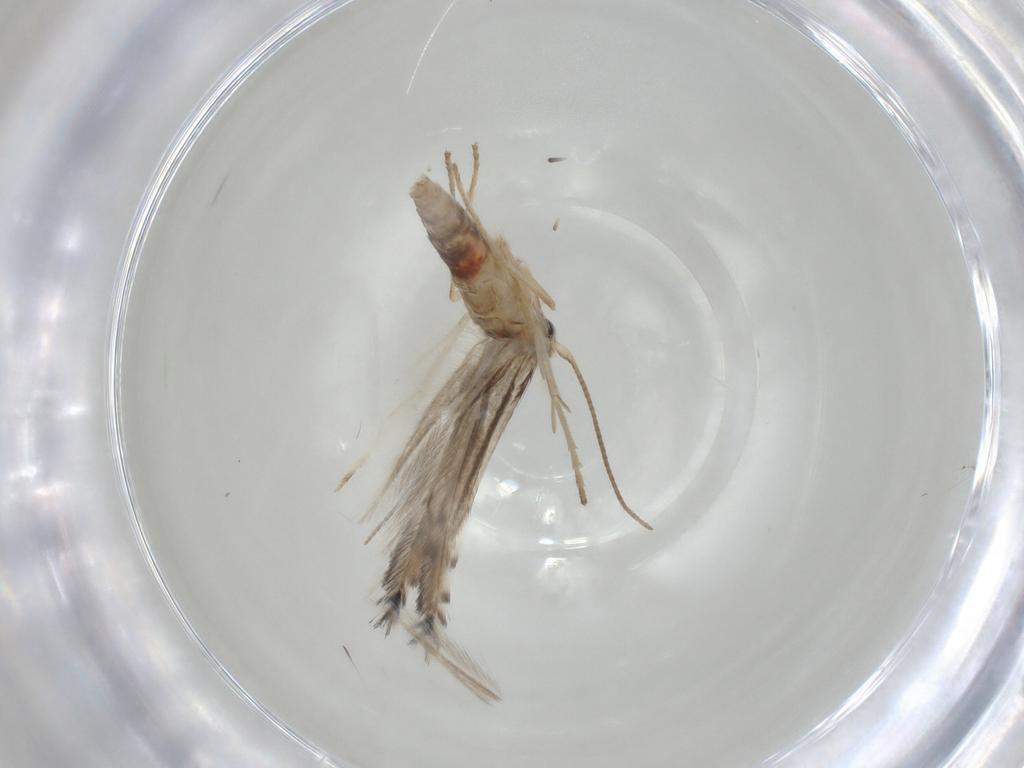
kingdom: Animalia
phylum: Arthropoda
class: Insecta
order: Lepidoptera
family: Gracillariidae
